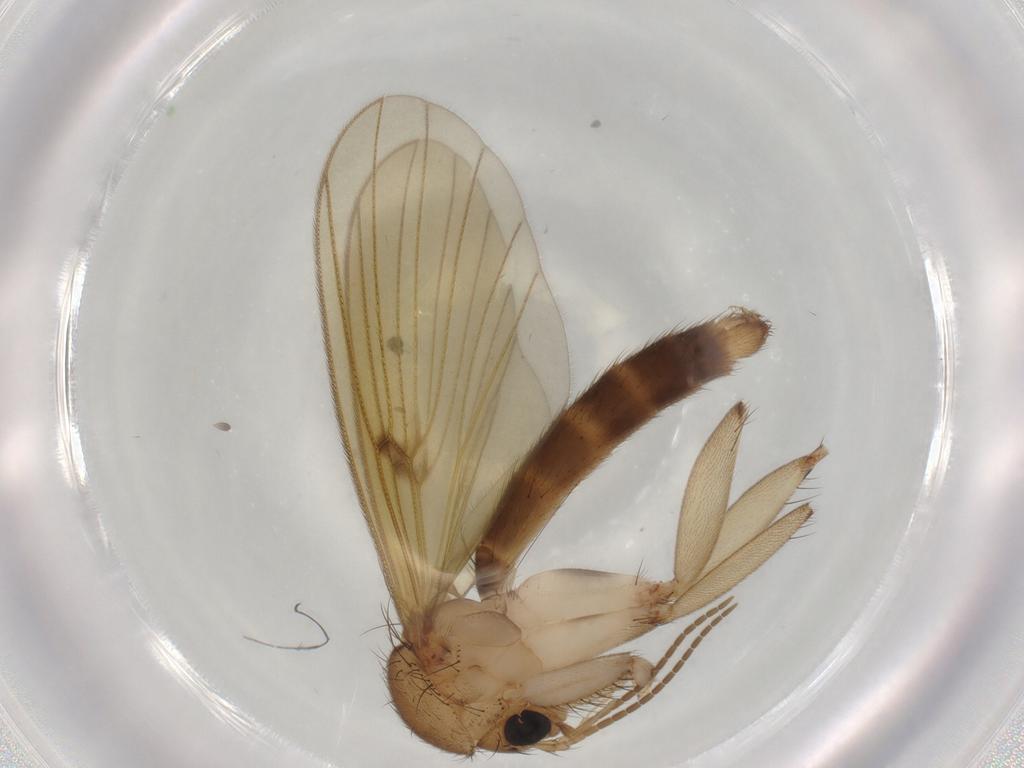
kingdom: Animalia
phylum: Arthropoda
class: Insecta
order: Diptera
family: Mycetophilidae
